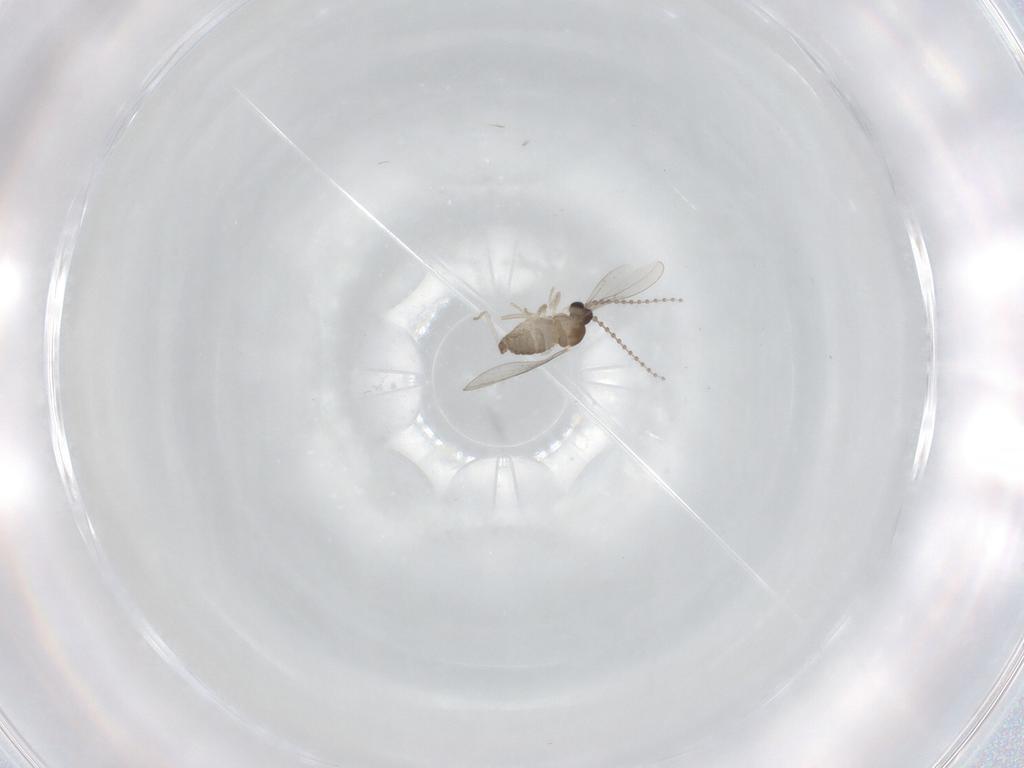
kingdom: Animalia
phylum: Arthropoda
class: Insecta
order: Diptera
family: Cecidomyiidae
